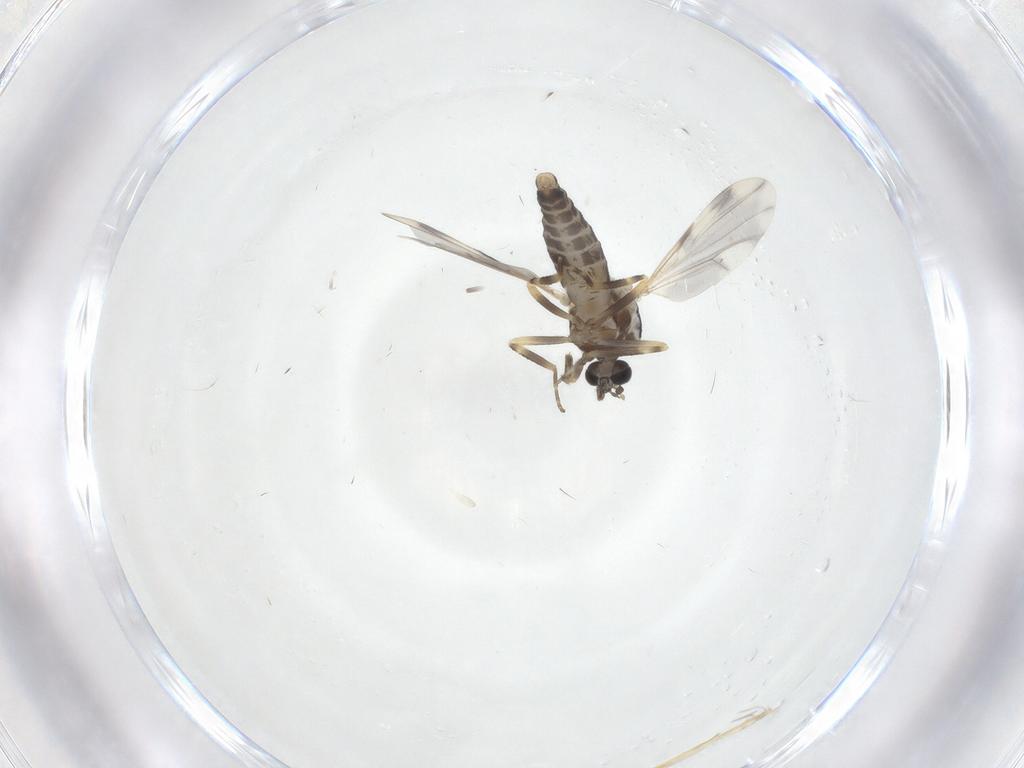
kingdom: Animalia
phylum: Arthropoda
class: Insecta
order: Diptera
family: Ceratopogonidae
